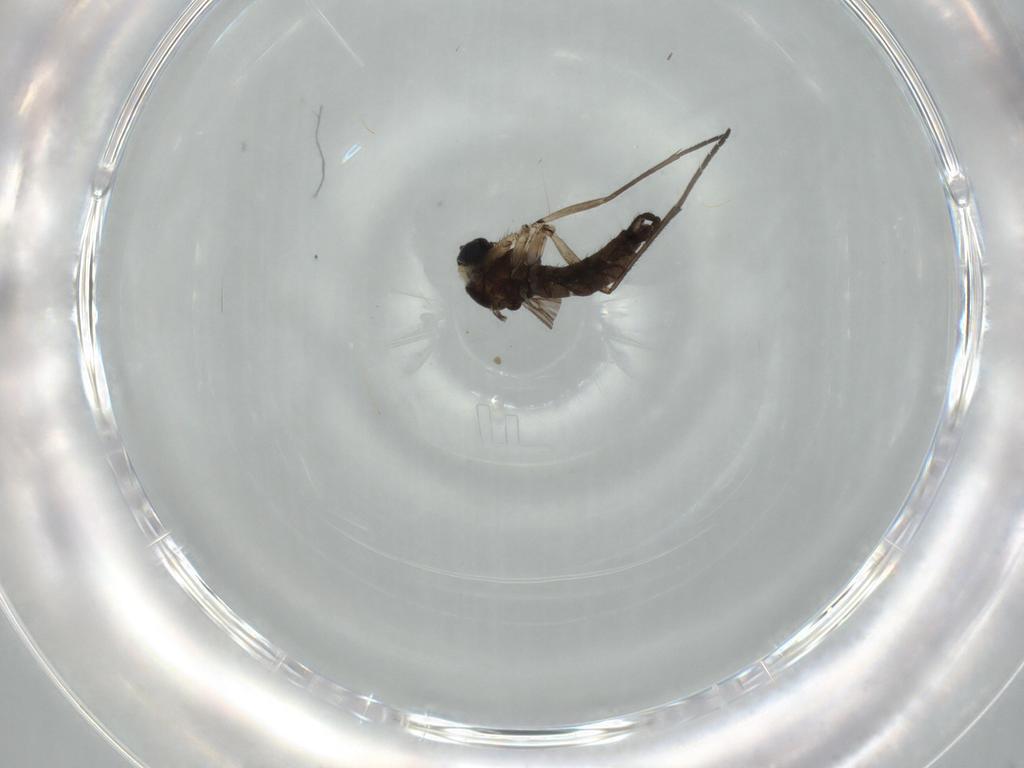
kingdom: Animalia
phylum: Arthropoda
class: Insecta
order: Diptera
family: Sciaridae
